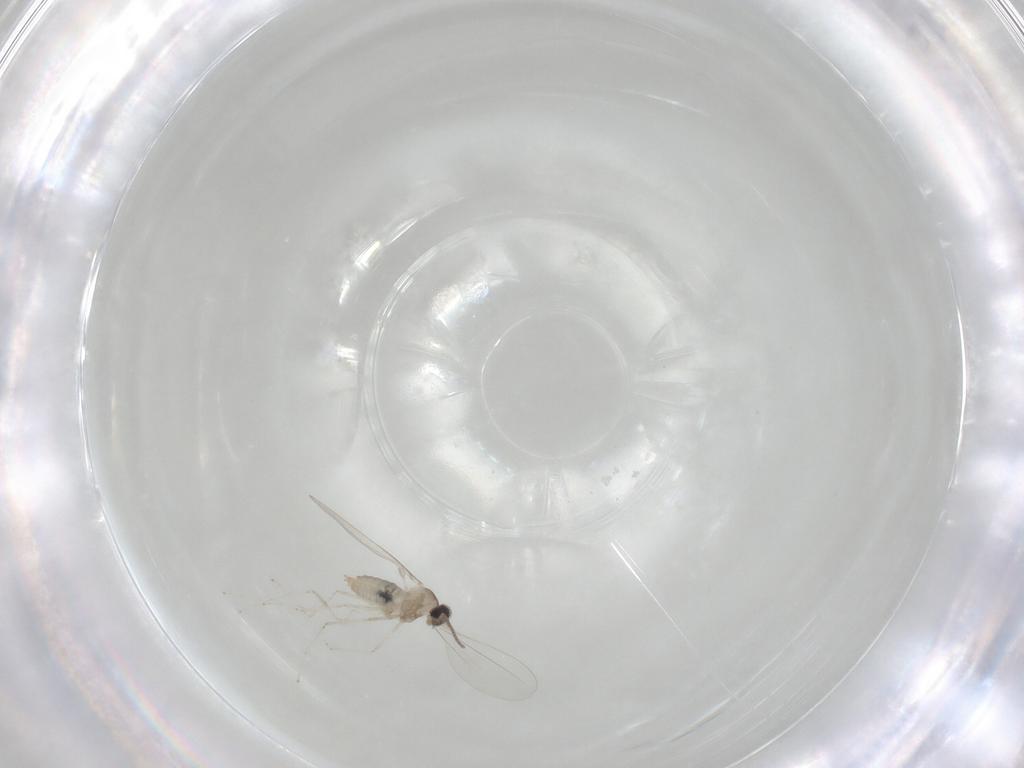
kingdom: Animalia
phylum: Arthropoda
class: Insecta
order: Diptera
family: Cecidomyiidae
